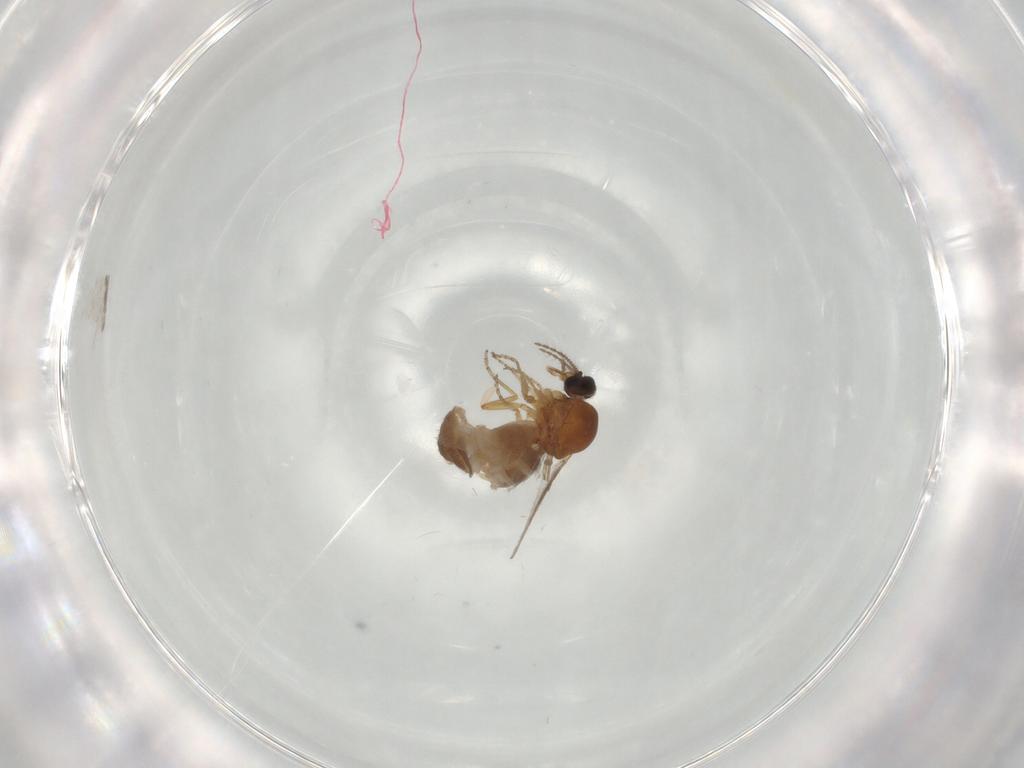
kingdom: Animalia
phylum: Arthropoda
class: Insecta
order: Diptera
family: Ceratopogonidae
